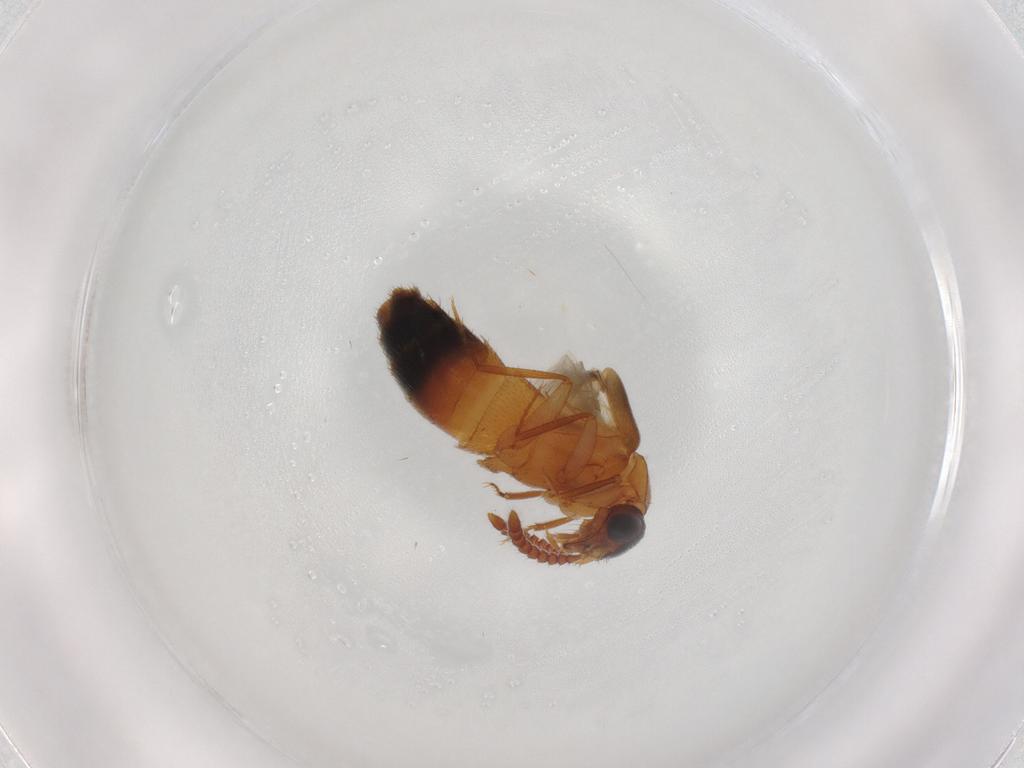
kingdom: Animalia
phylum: Arthropoda
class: Insecta
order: Coleoptera
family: Staphylinidae
